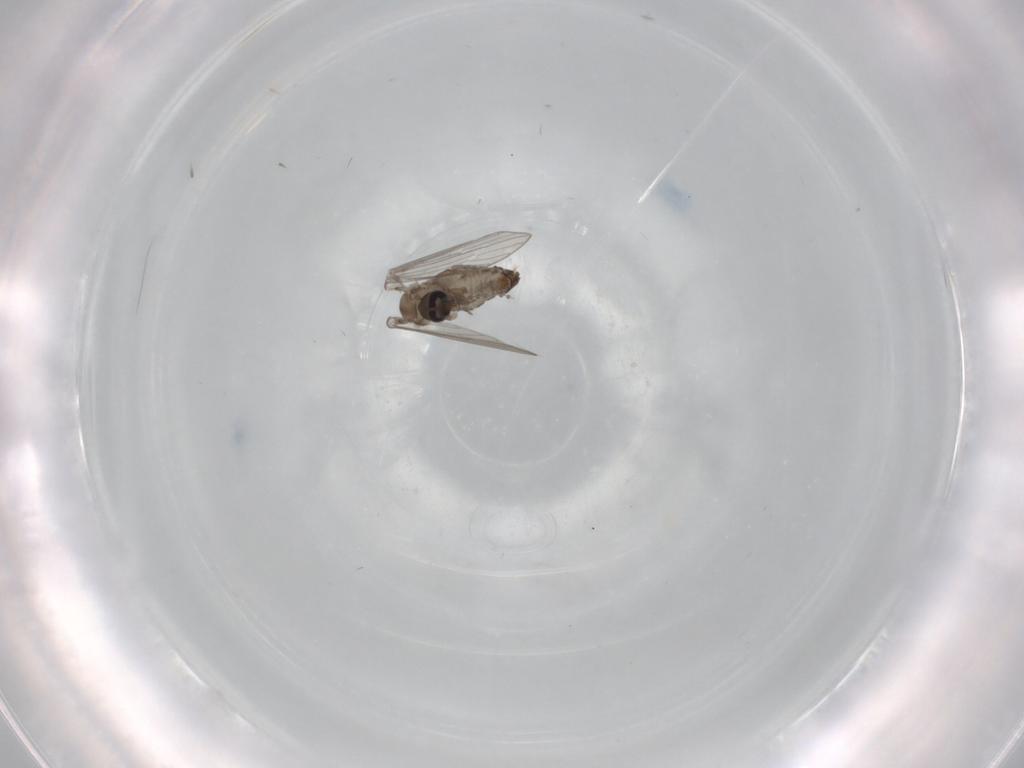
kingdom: Animalia
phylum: Arthropoda
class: Insecta
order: Diptera
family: Psychodidae
